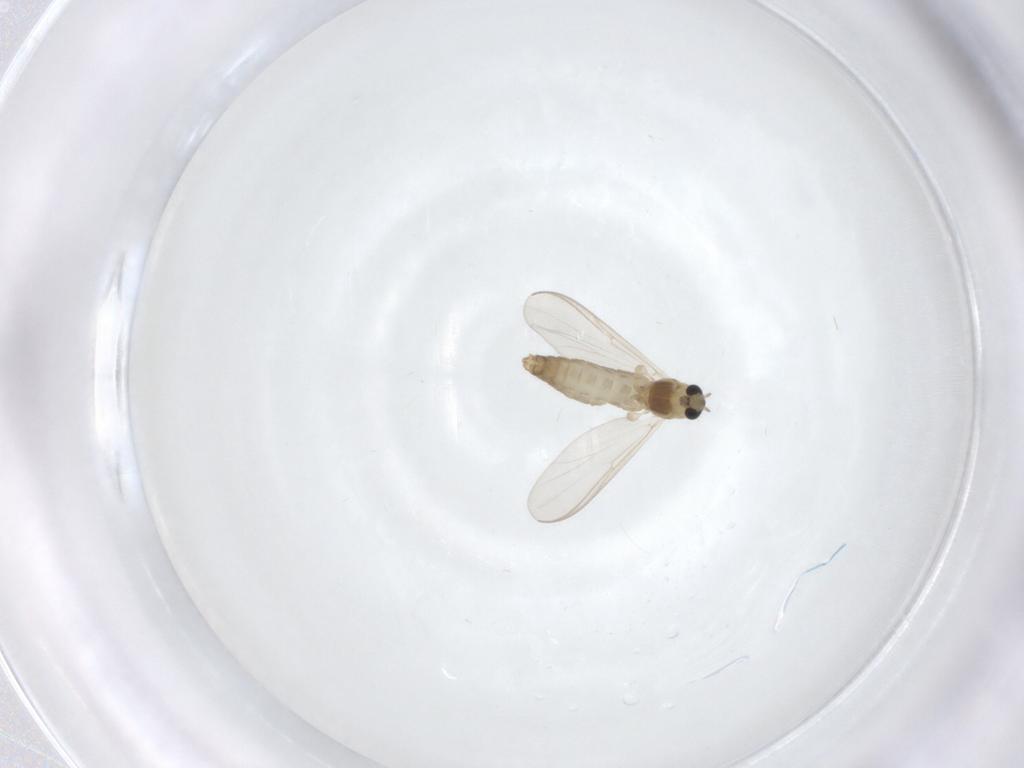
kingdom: Animalia
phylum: Arthropoda
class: Insecta
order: Diptera
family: Chironomidae
